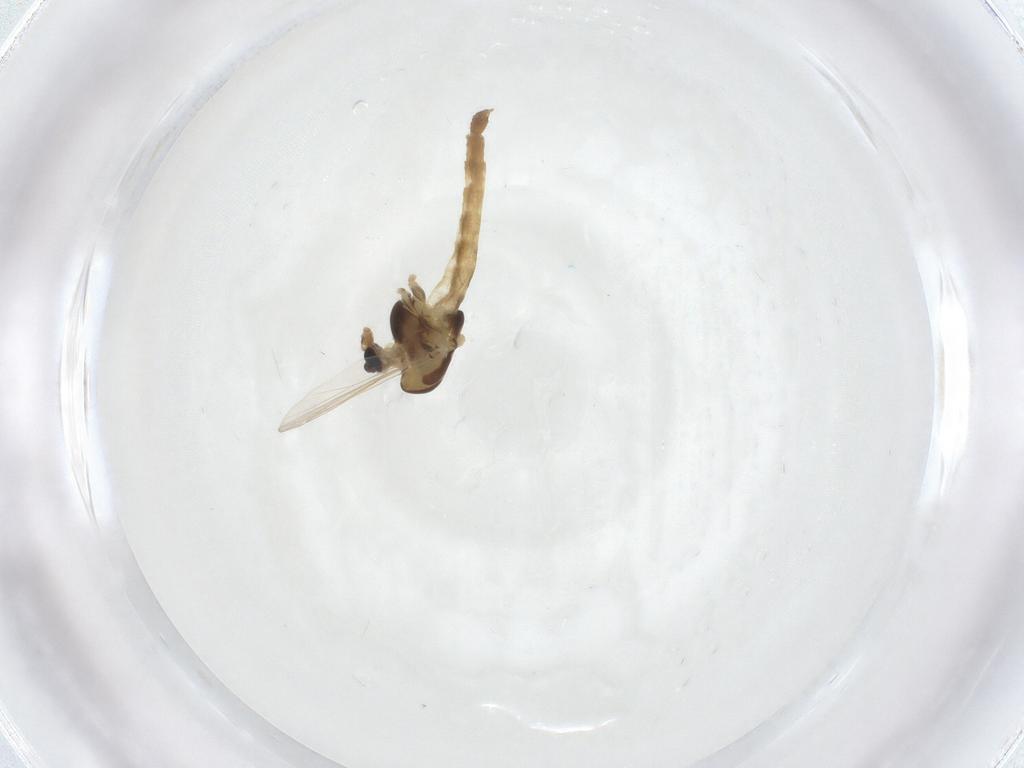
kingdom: Animalia
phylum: Arthropoda
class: Insecta
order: Diptera
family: Chironomidae
